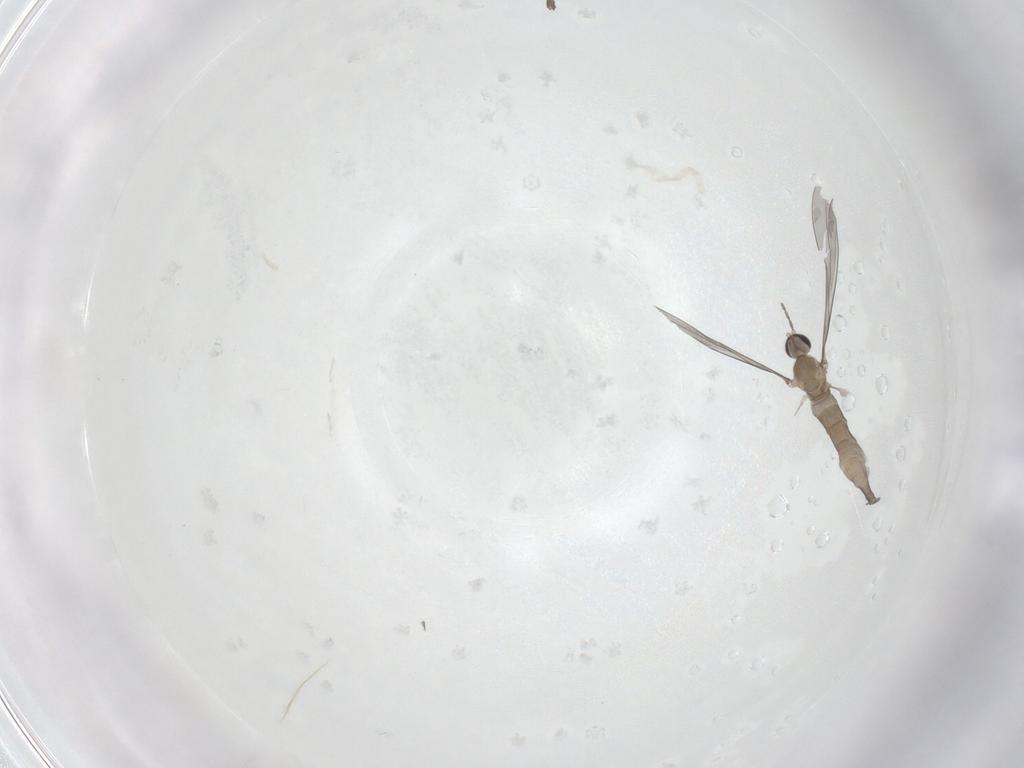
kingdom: Animalia
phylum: Arthropoda
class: Insecta
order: Diptera
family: Cecidomyiidae
